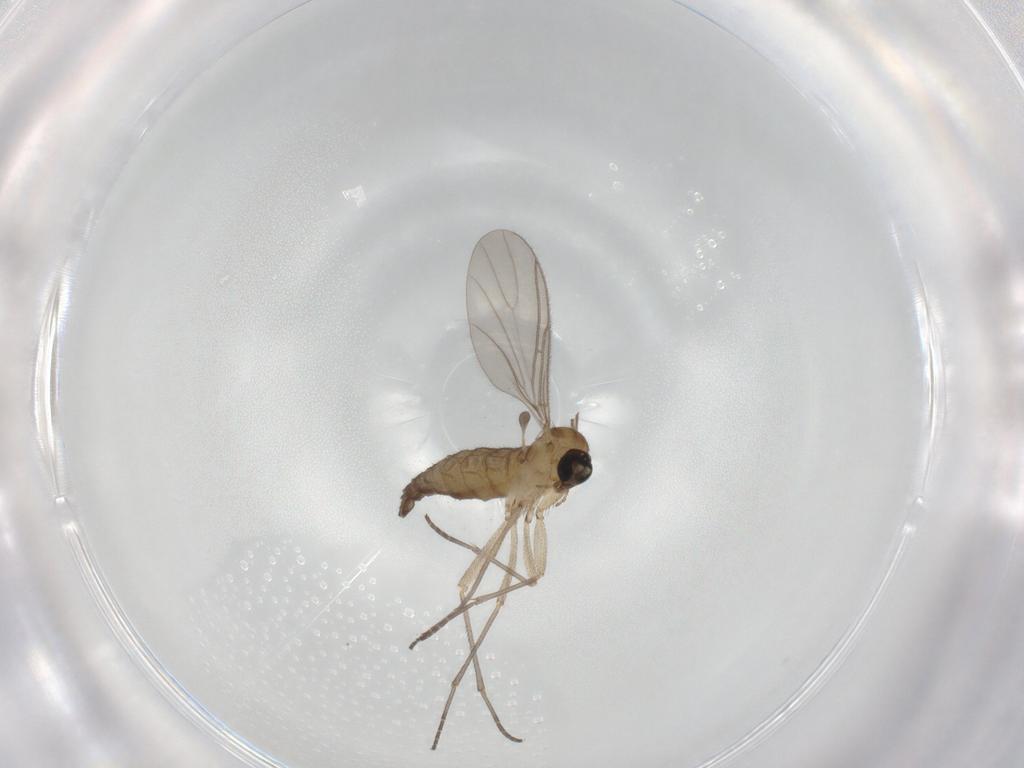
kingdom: Animalia
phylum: Arthropoda
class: Insecta
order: Diptera
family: Sciaridae
